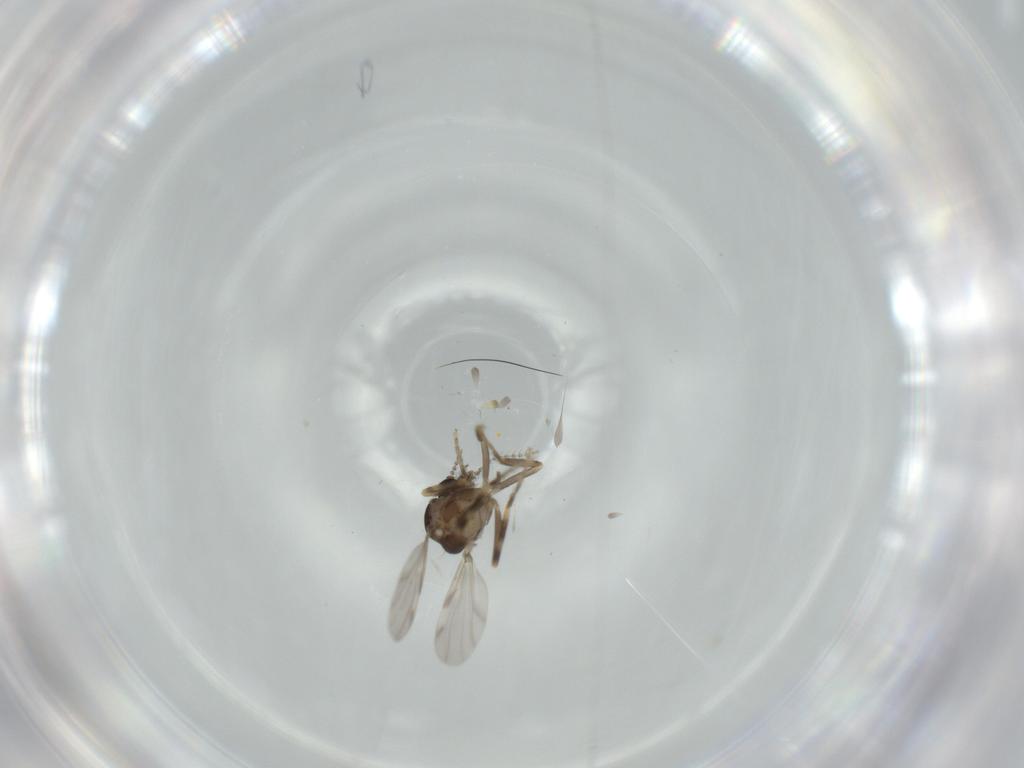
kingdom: Animalia
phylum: Arthropoda
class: Insecta
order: Diptera
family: Ceratopogonidae
